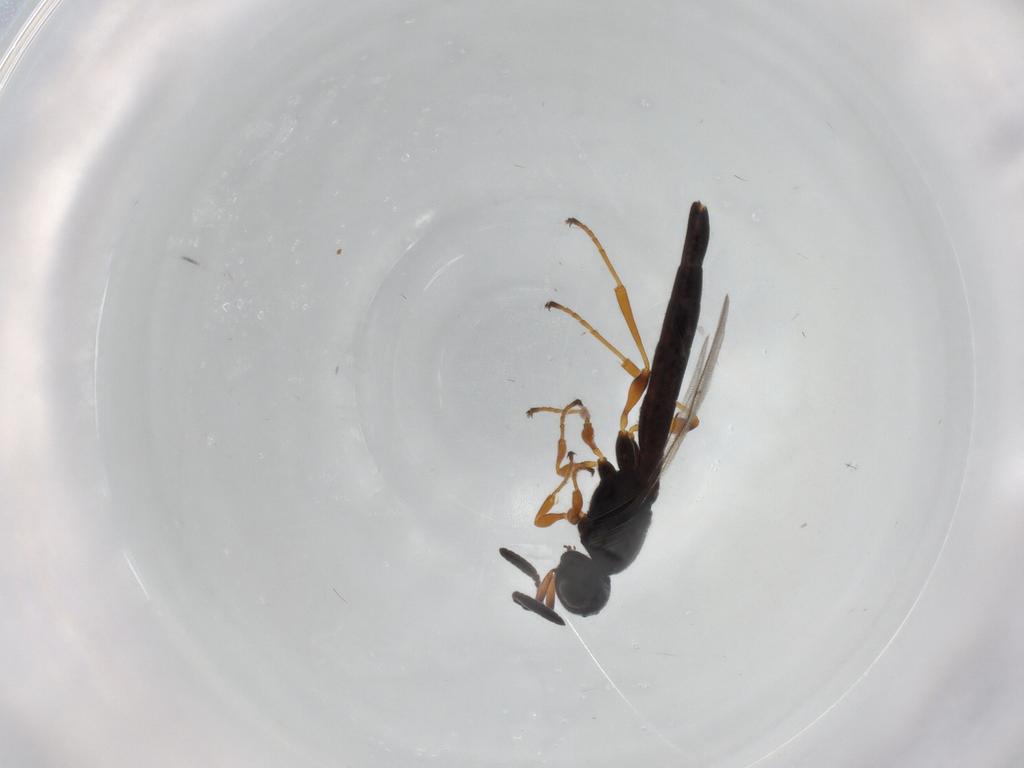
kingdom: Animalia
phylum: Arthropoda
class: Insecta
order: Hymenoptera
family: Scelionidae
